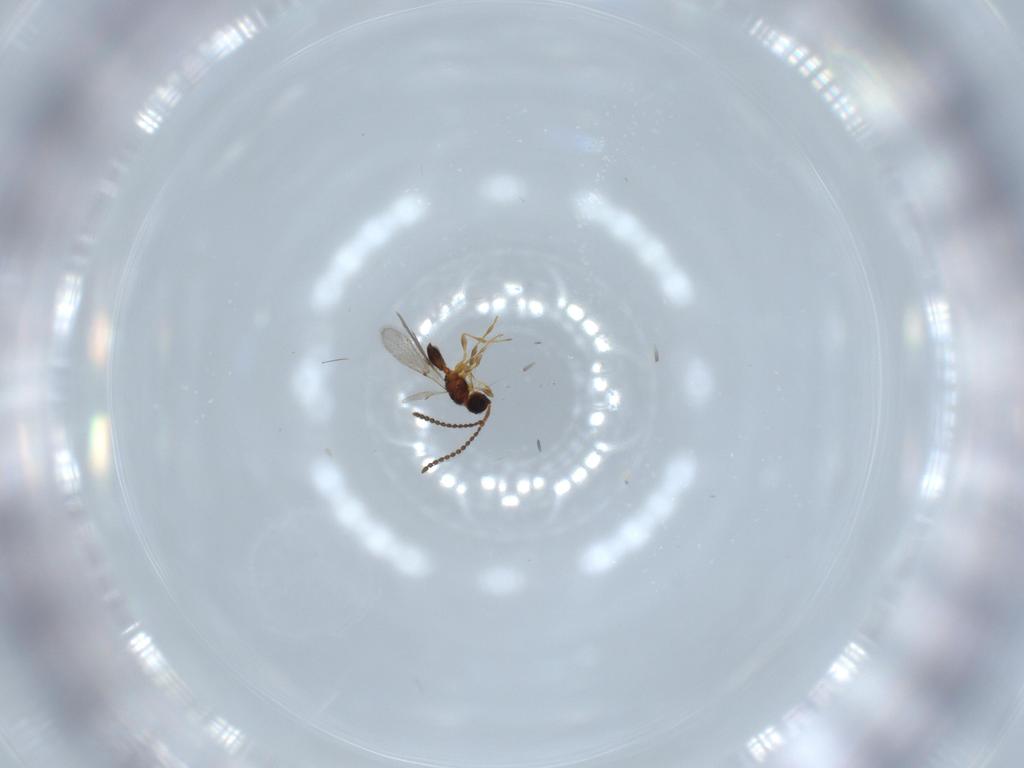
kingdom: Animalia
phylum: Arthropoda
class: Insecta
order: Hymenoptera
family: Diapriidae
